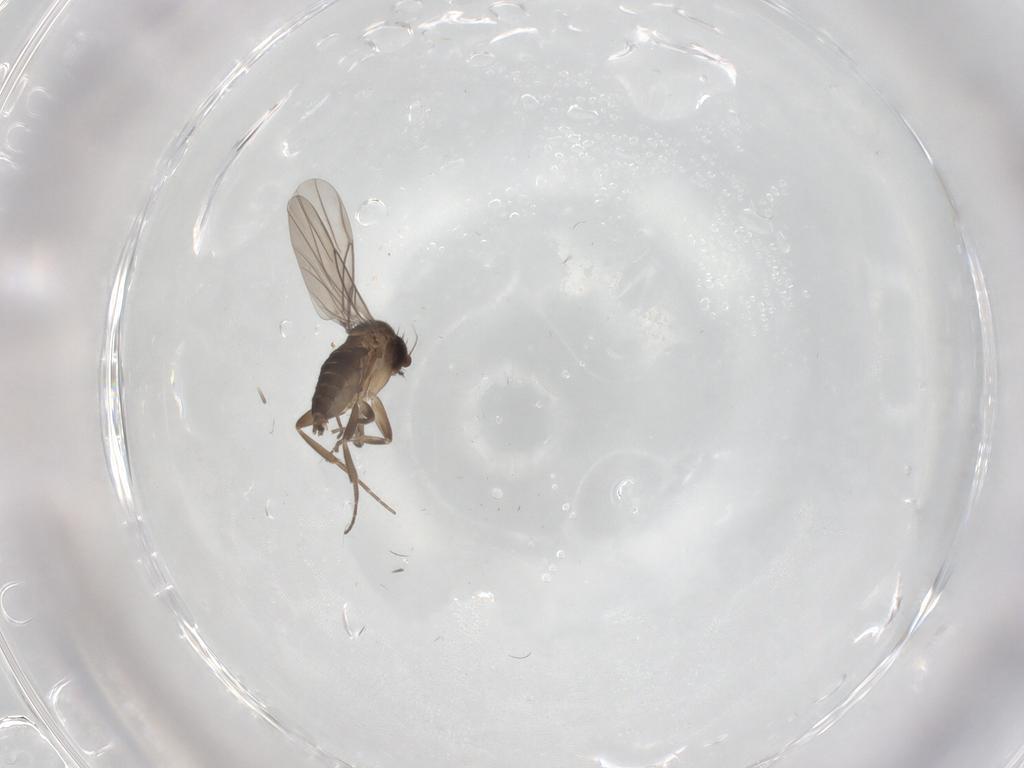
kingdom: Animalia
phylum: Arthropoda
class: Insecta
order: Diptera
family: Phoridae
